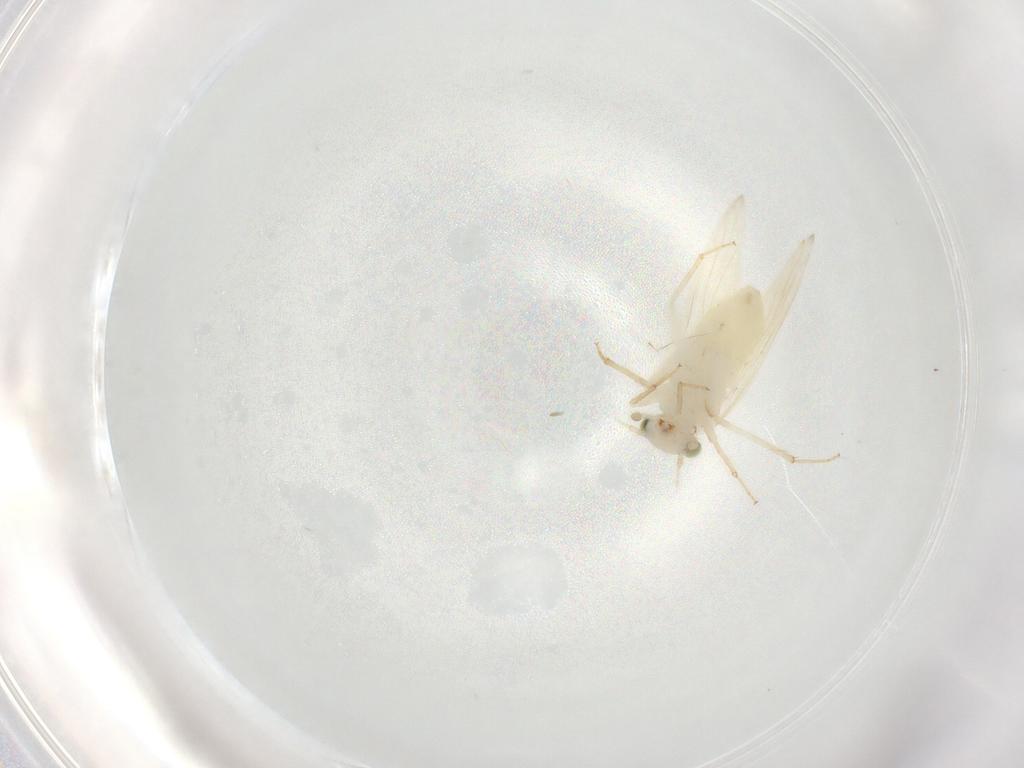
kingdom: Animalia
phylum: Arthropoda
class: Insecta
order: Psocodea
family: Lepidopsocidae
